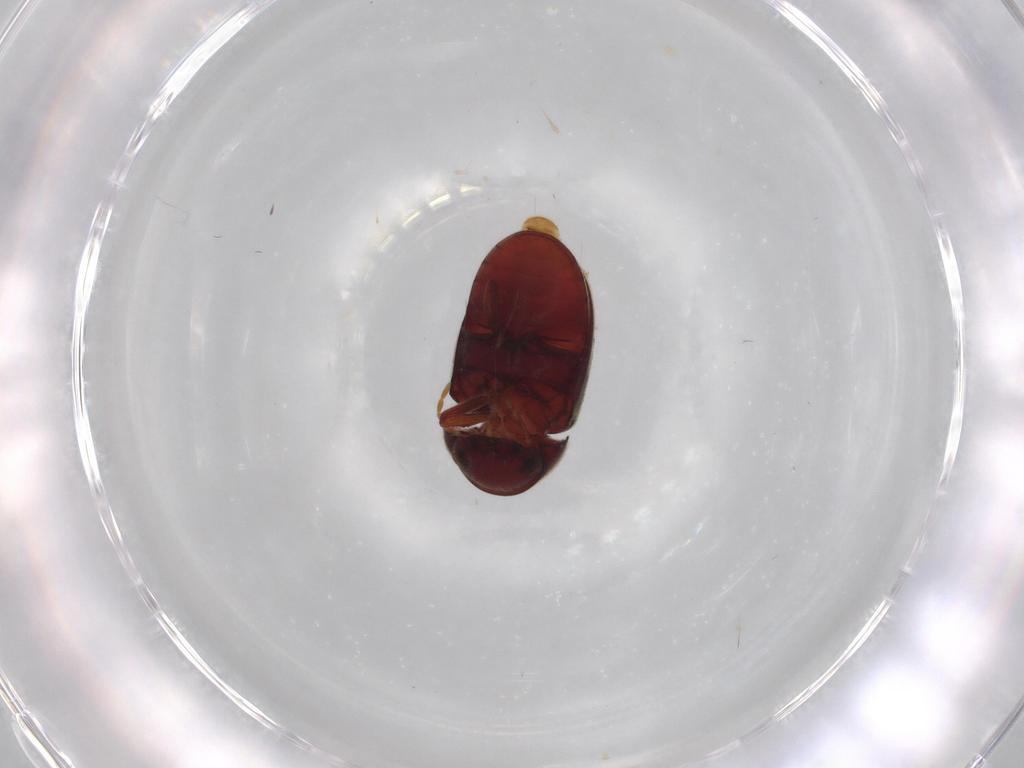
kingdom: Animalia
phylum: Arthropoda
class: Insecta
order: Coleoptera
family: Ptinidae
